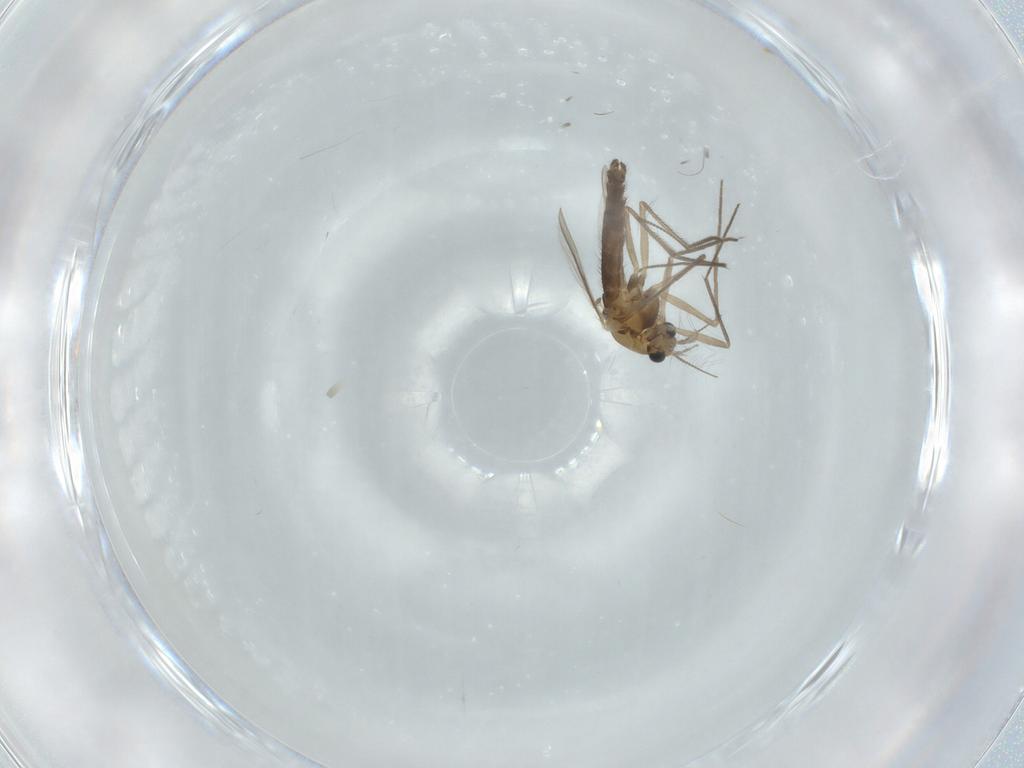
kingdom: Animalia
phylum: Arthropoda
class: Insecta
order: Diptera
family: Chironomidae
